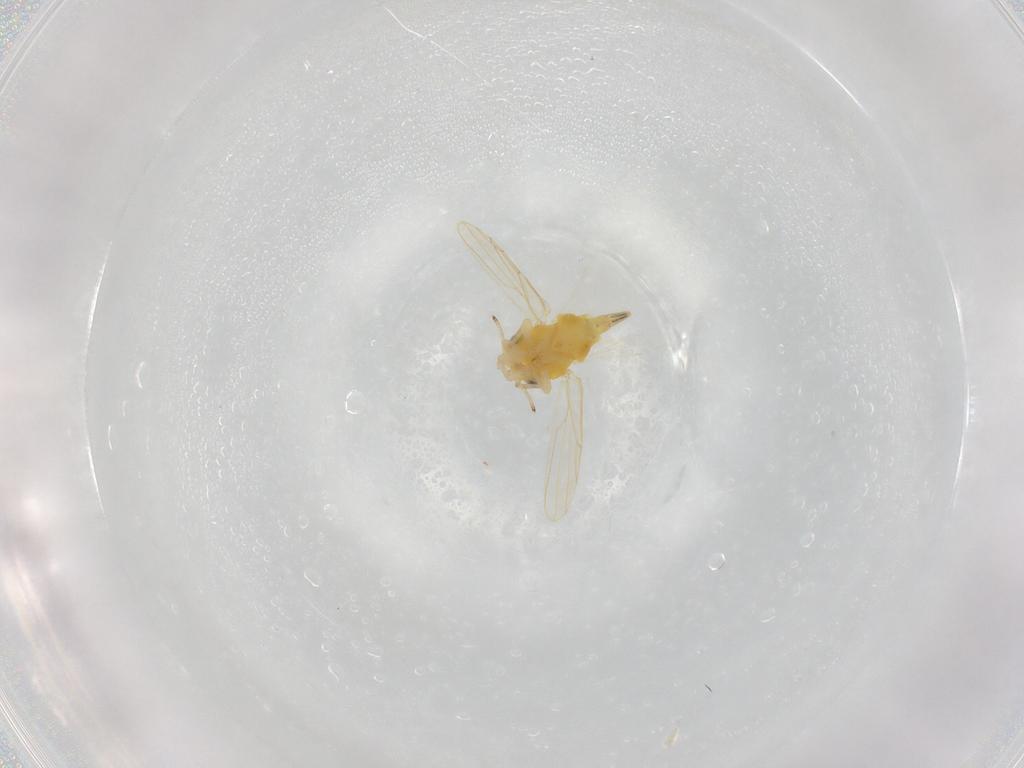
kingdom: Animalia
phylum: Arthropoda
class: Insecta
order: Hemiptera
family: Aphalaridae
